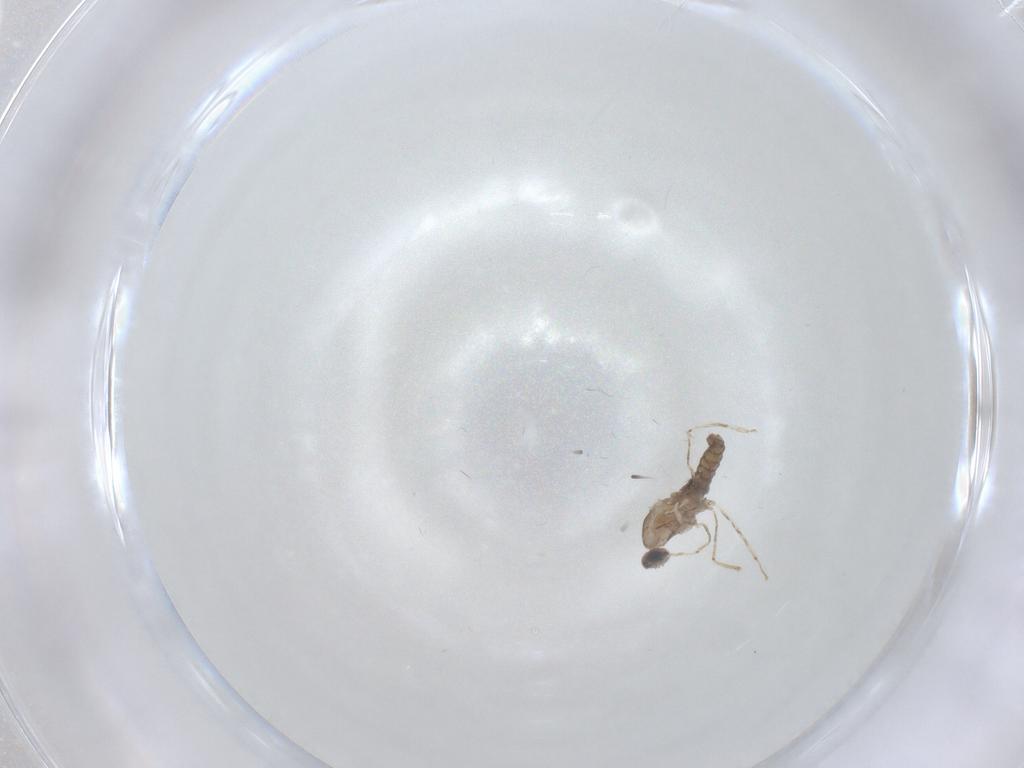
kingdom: Animalia
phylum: Arthropoda
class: Insecta
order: Diptera
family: Cecidomyiidae
